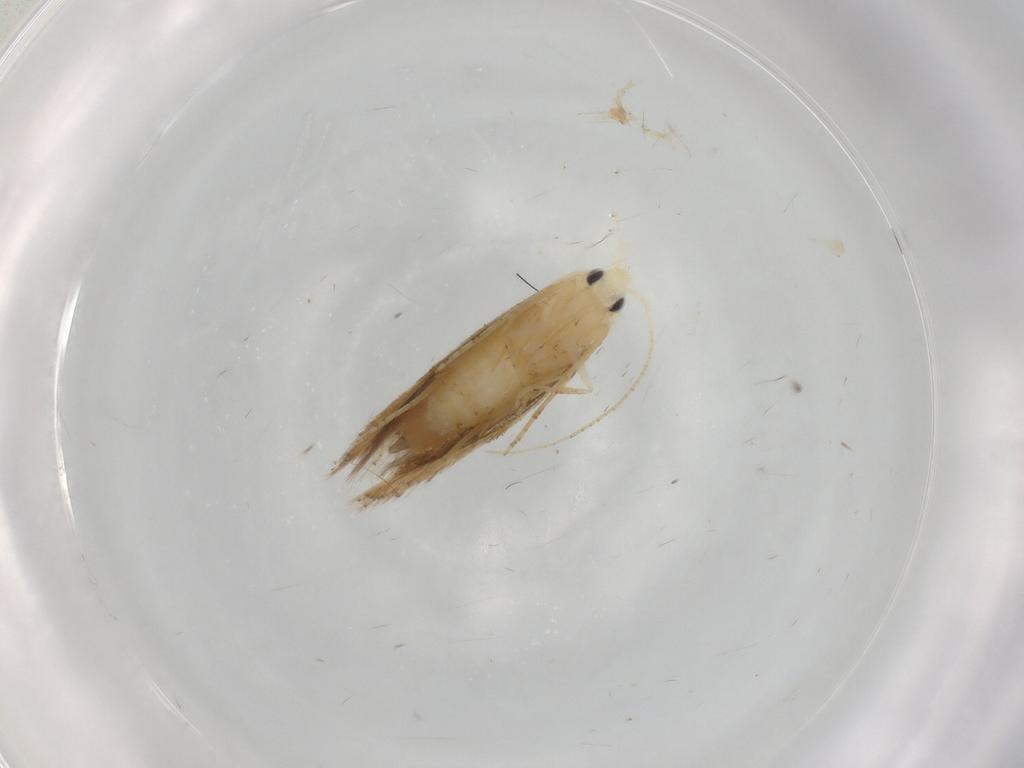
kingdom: Animalia
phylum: Arthropoda
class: Insecta
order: Lepidoptera
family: Bucculatricidae
